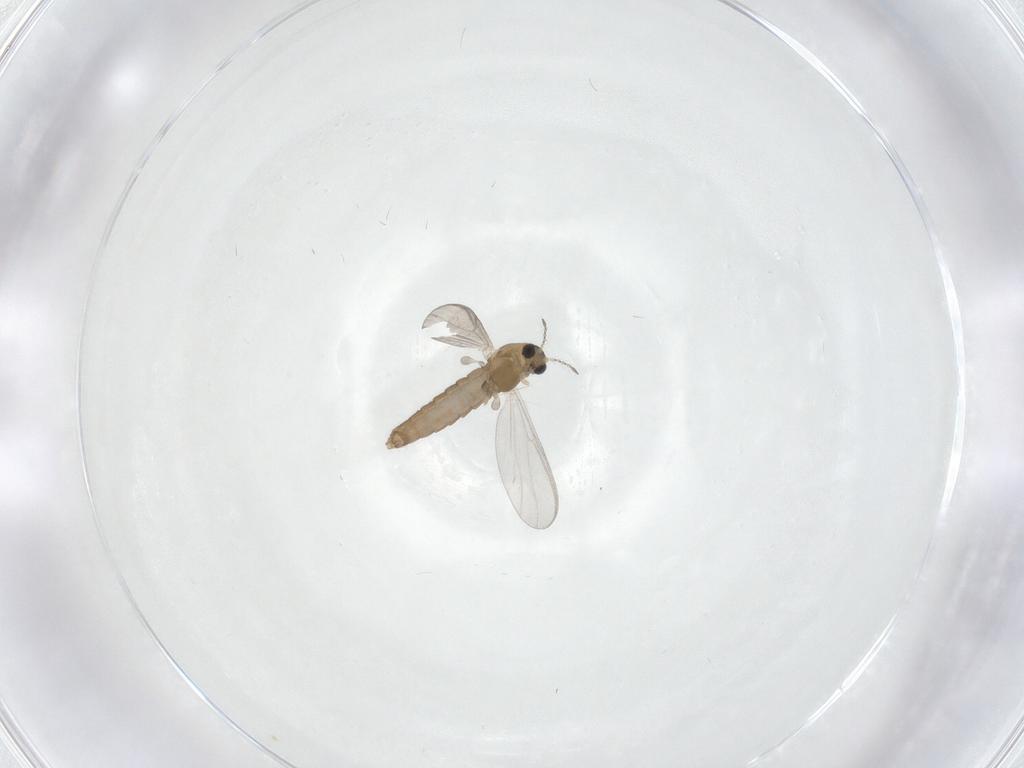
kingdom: Animalia
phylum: Arthropoda
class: Insecta
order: Diptera
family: Chironomidae
